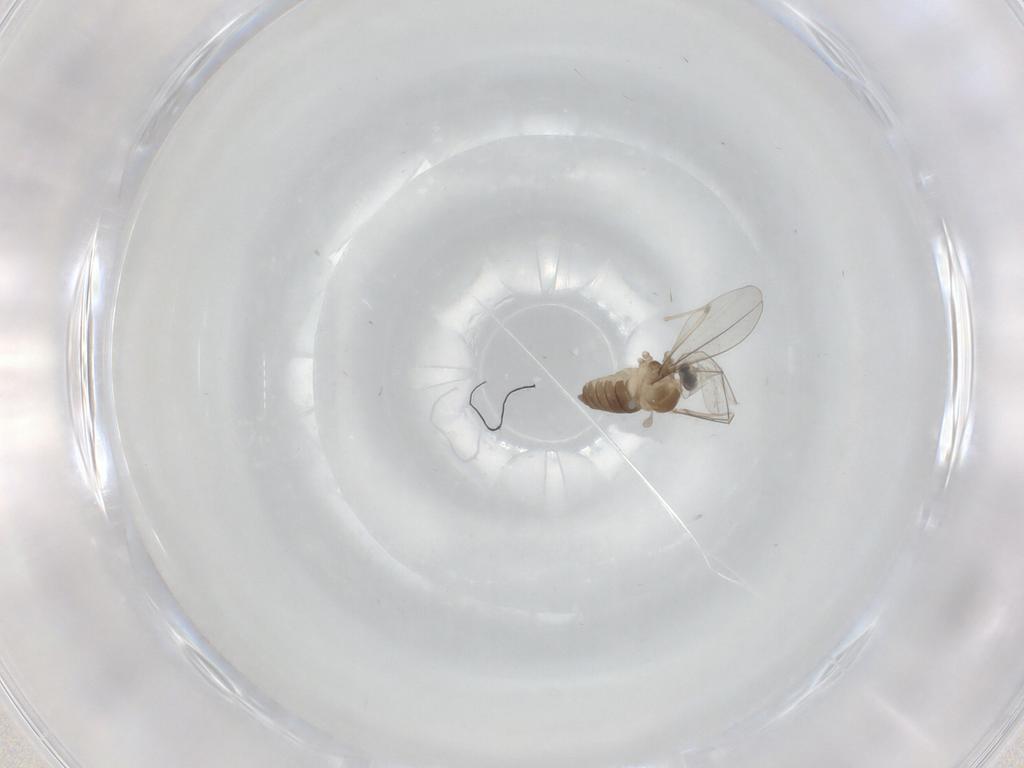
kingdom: Animalia
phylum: Arthropoda
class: Insecta
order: Diptera
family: Cecidomyiidae
